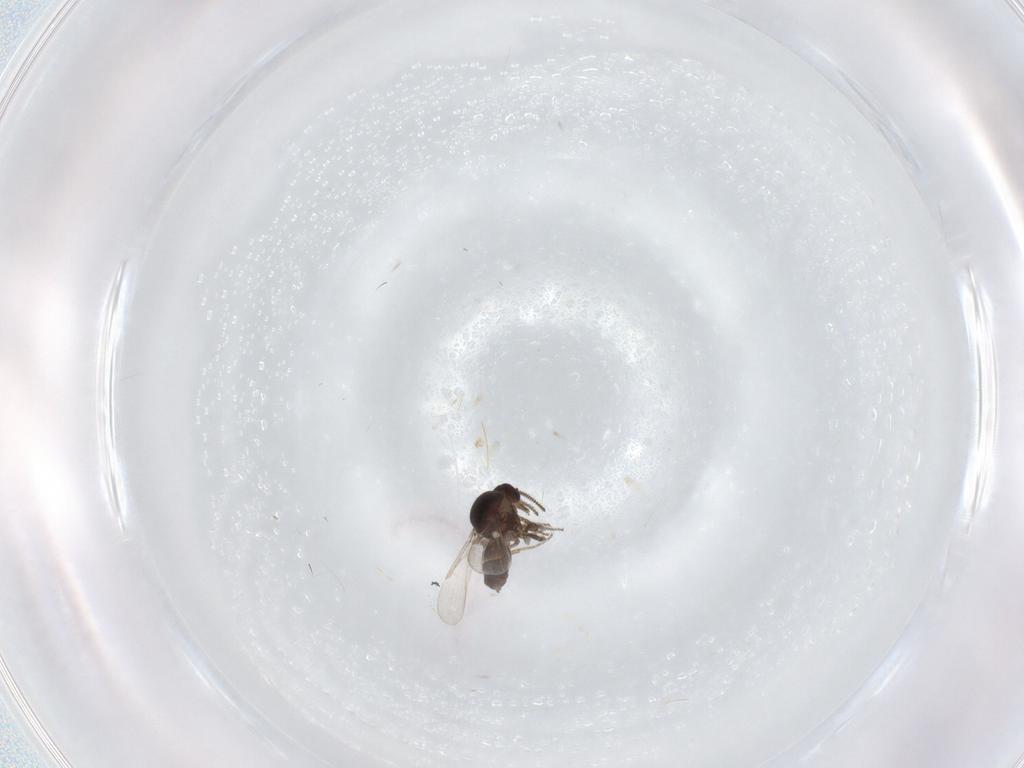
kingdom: Animalia
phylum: Arthropoda
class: Insecta
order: Diptera
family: Ceratopogonidae
